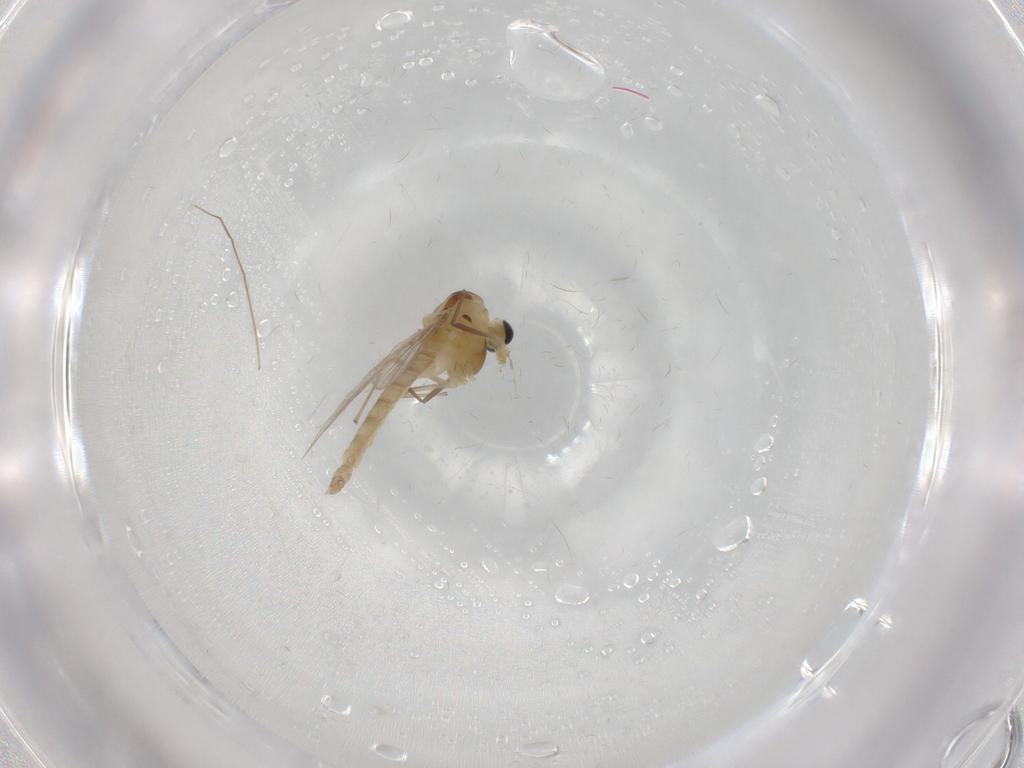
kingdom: Animalia
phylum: Arthropoda
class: Insecta
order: Diptera
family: Chironomidae
